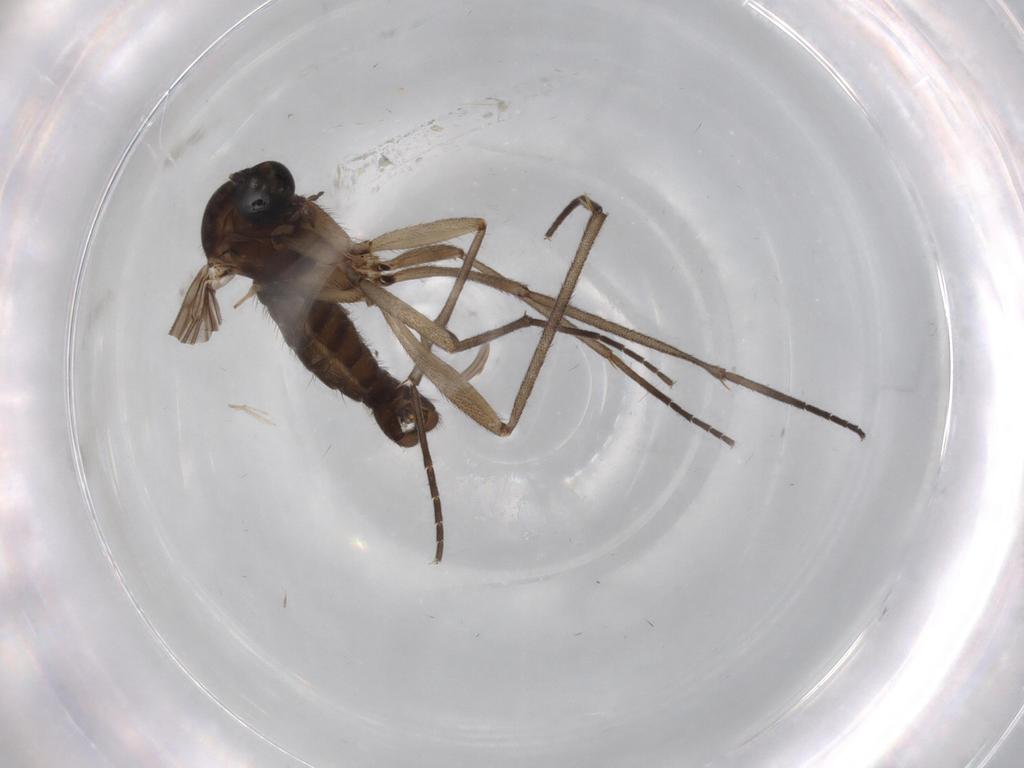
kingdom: Animalia
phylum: Arthropoda
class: Insecta
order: Diptera
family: Sciaridae
